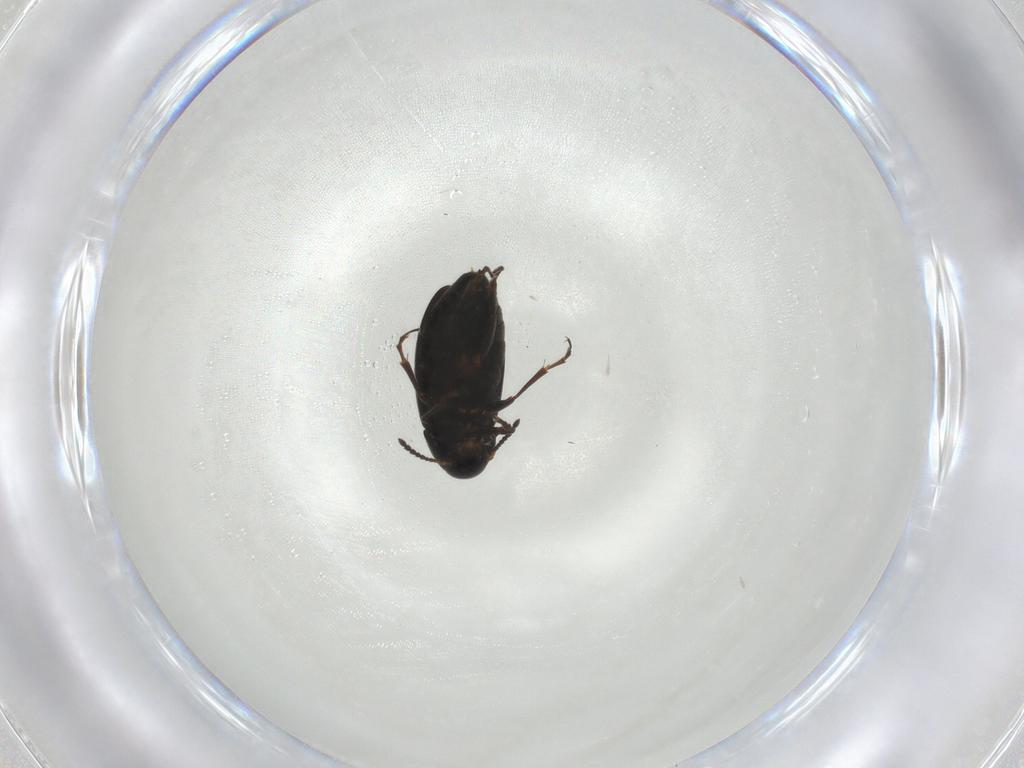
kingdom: Animalia
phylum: Arthropoda
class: Insecta
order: Coleoptera
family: Scraptiidae
